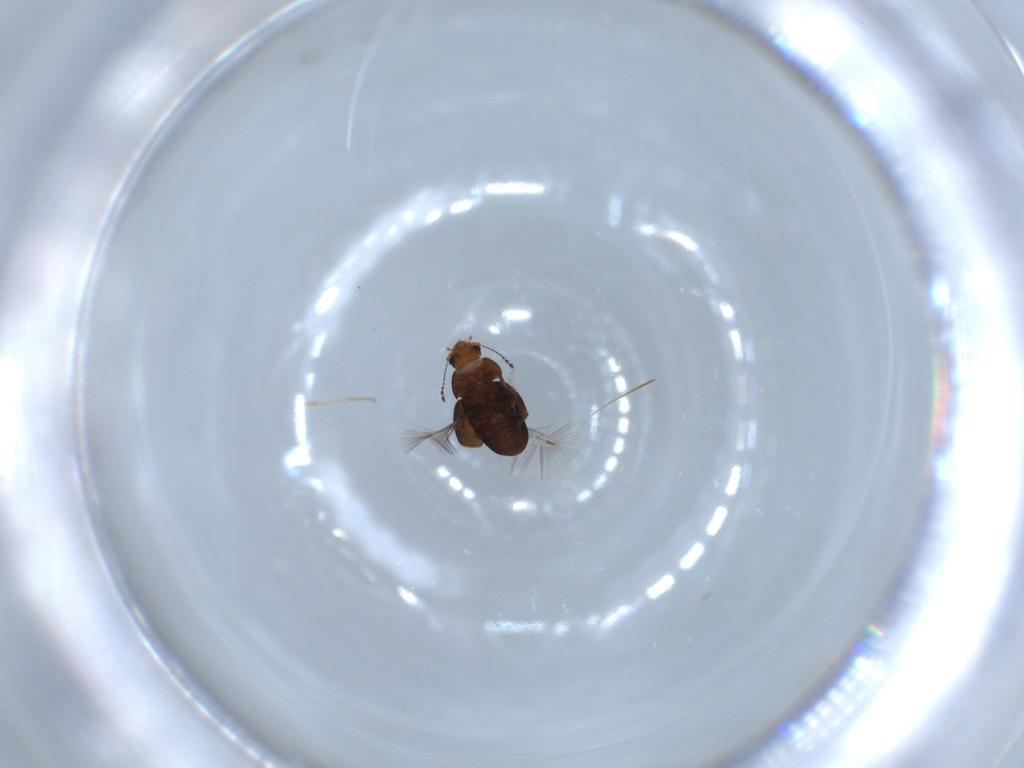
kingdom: Animalia
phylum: Arthropoda
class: Insecta
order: Coleoptera
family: Ptiliidae
